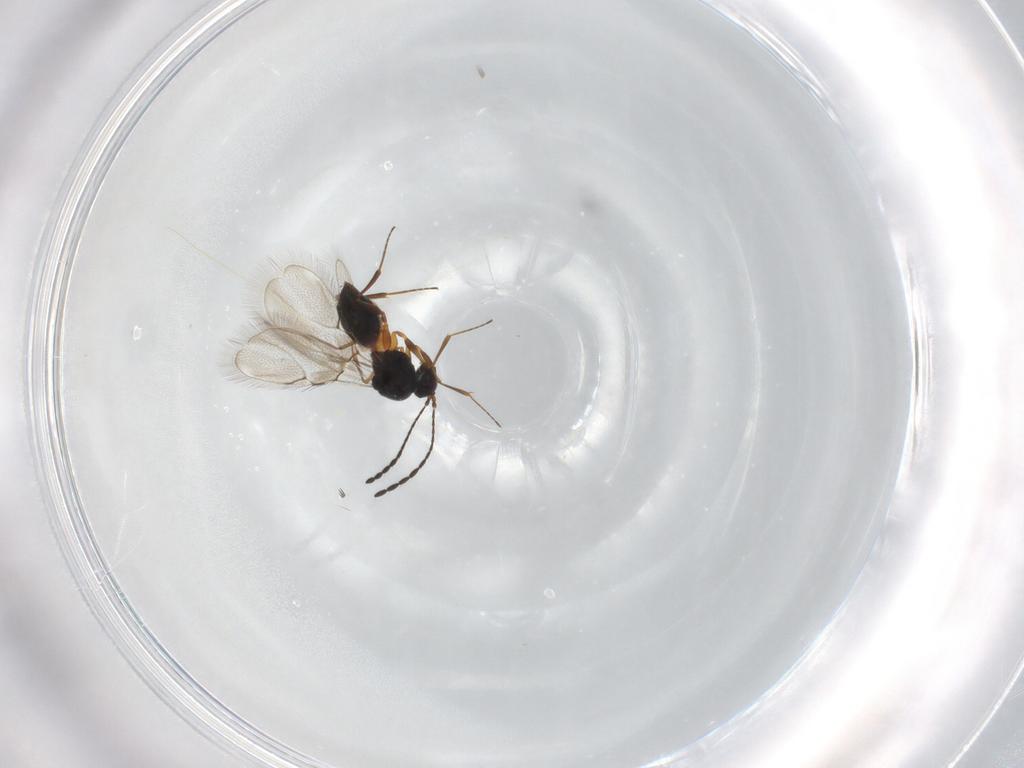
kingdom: Animalia
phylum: Arthropoda
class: Insecta
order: Hymenoptera
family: Figitidae
